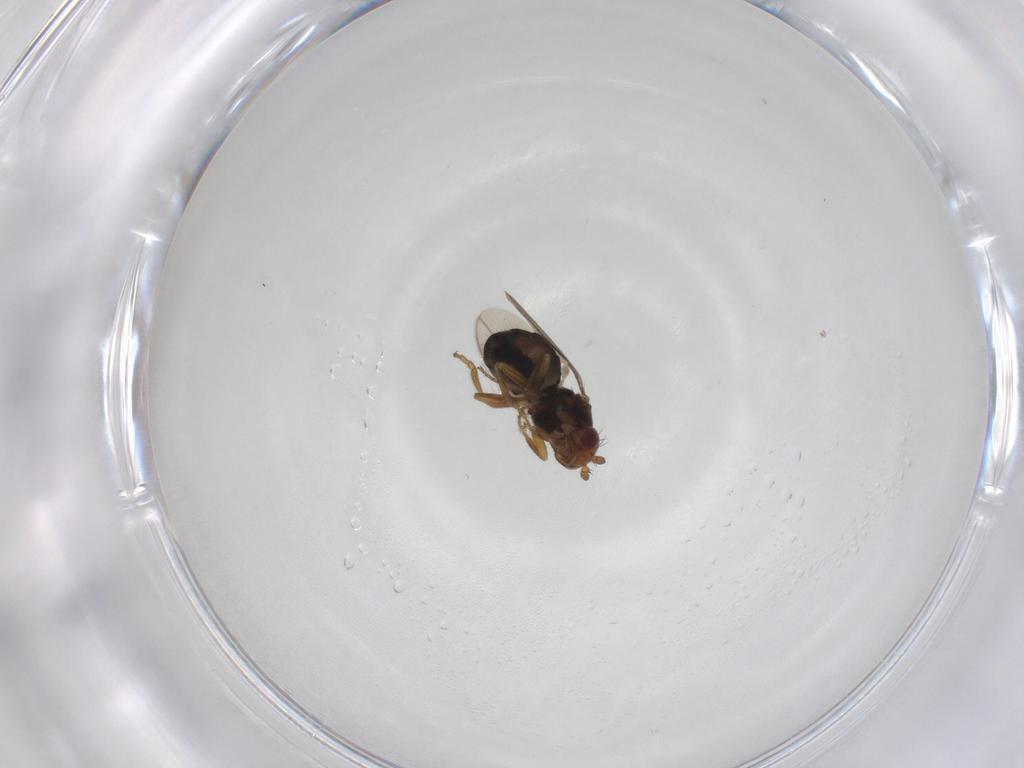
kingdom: Animalia
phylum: Arthropoda
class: Insecta
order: Diptera
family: Sphaeroceridae
